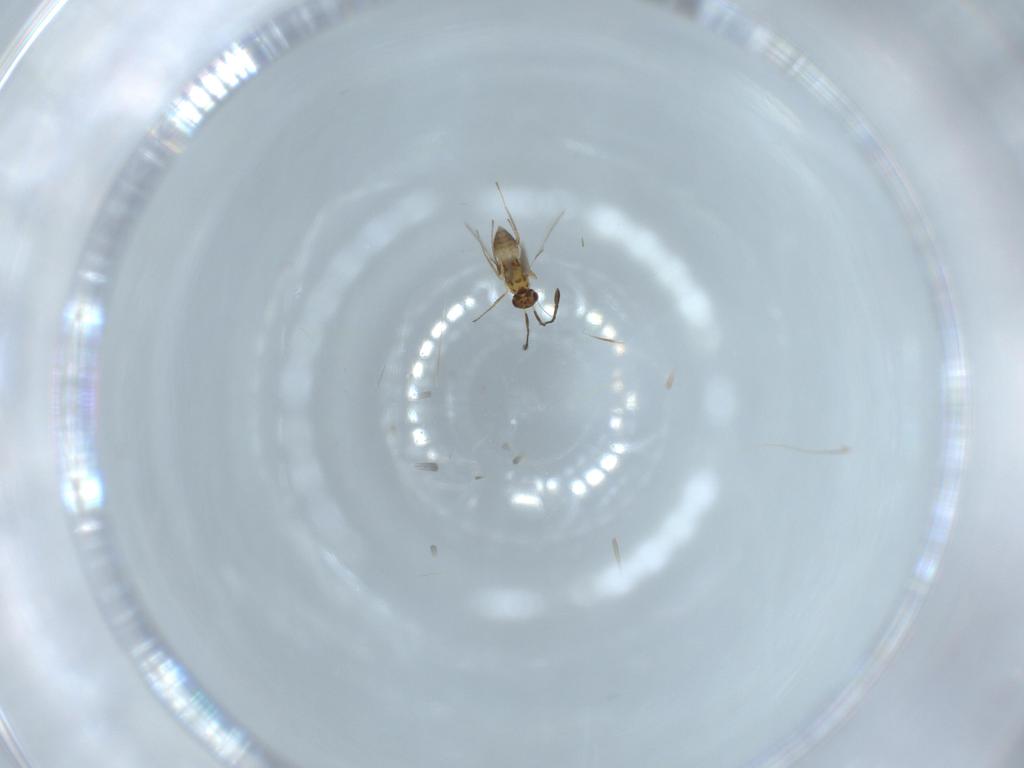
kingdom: Animalia
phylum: Arthropoda
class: Insecta
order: Hymenoptera
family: Mymaridae
